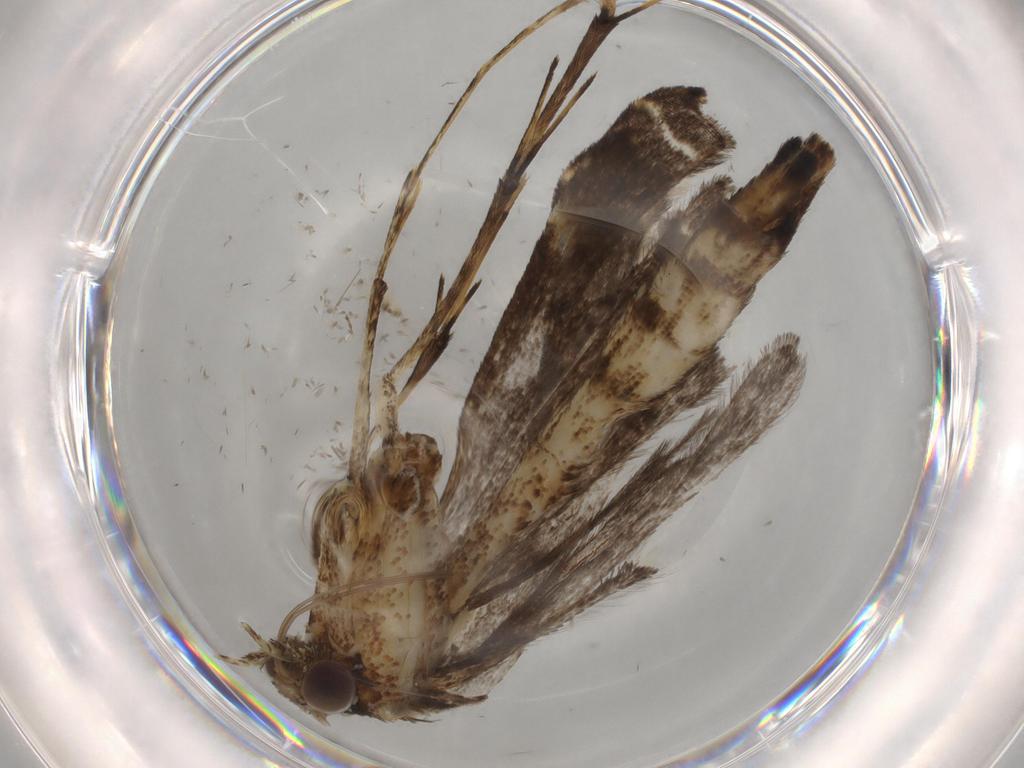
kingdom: Animalia
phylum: Arthropoda
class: Insecta
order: Lepidoptera
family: Pterophoridae
